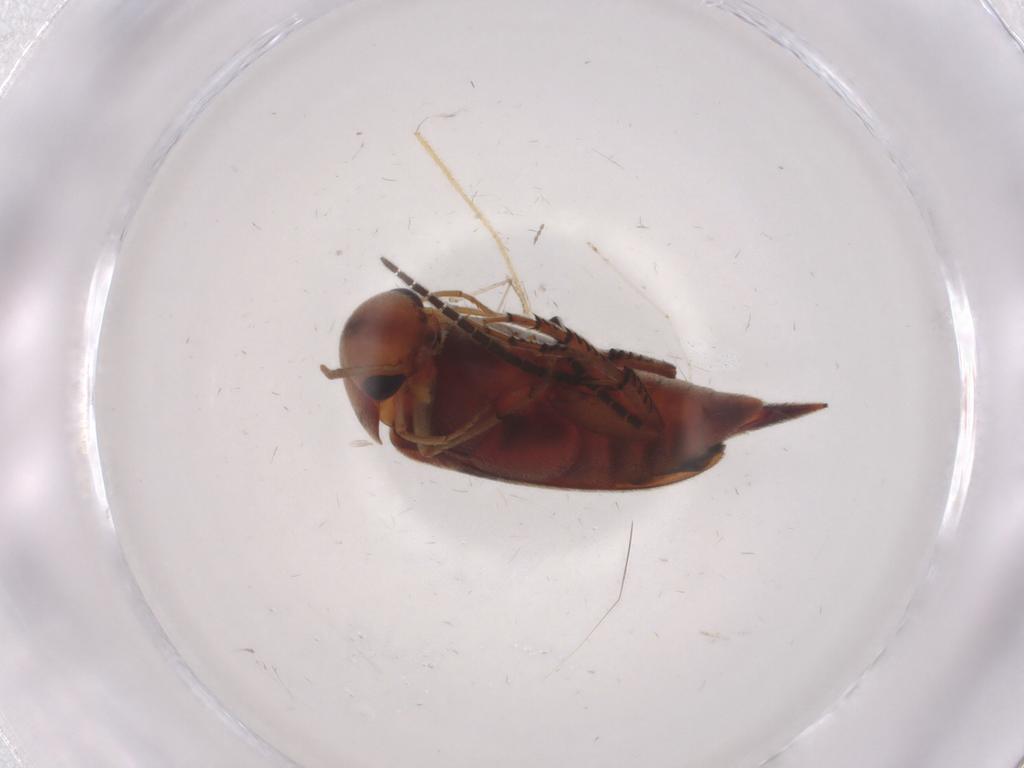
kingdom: Animalia
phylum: Arthropoda
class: Insecta
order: Coleoptera
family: Mordellidae
